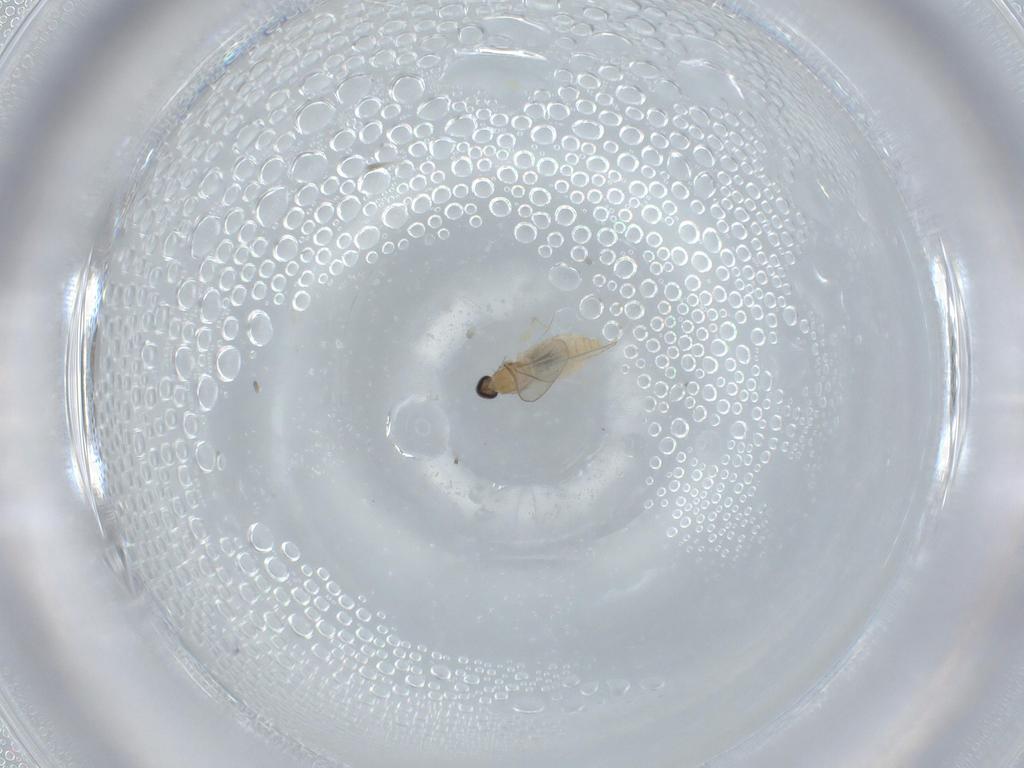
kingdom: Animalia
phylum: Arthropoda
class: Insecta
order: Diptera
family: Cecidomyiidae
